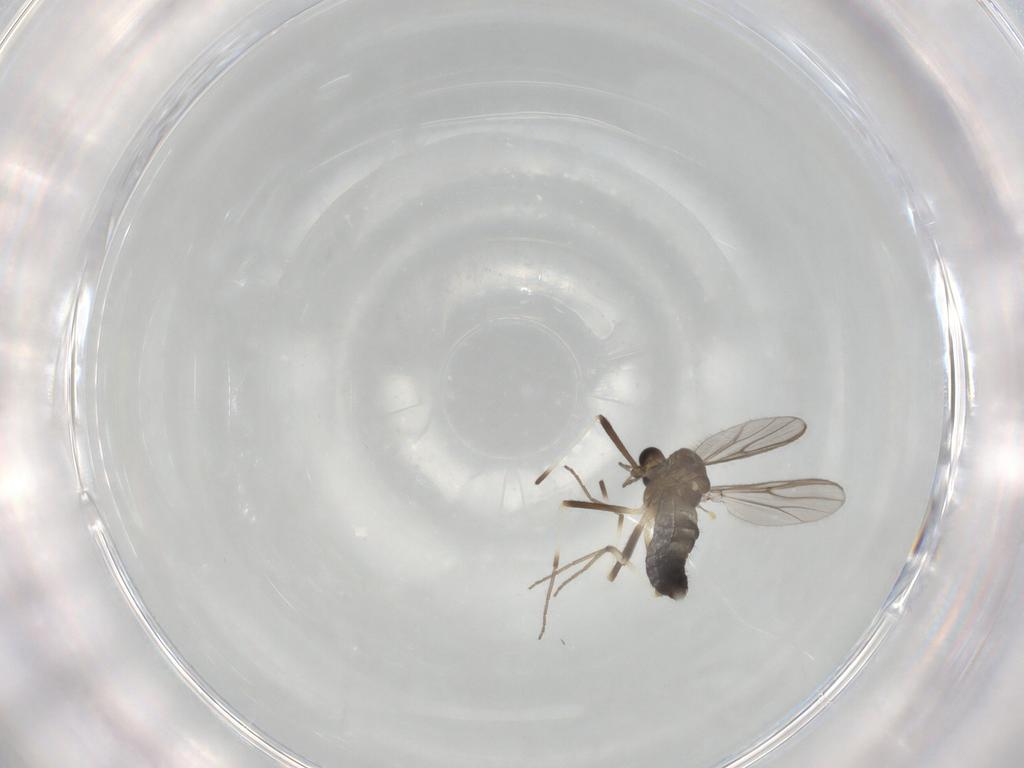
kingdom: Animalia
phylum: Arthropoda
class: Insecta
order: Diptera
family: Chironomidae
